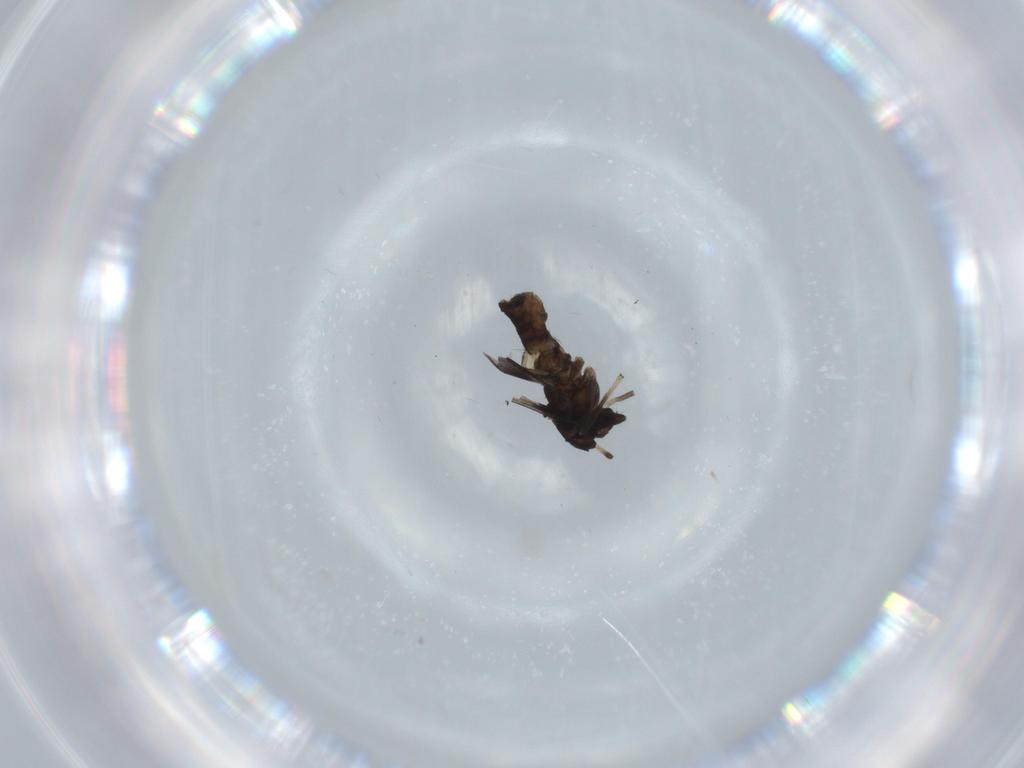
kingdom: Animalia
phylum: Arthropoda
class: Insecta
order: Diptera
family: Chironomidae
